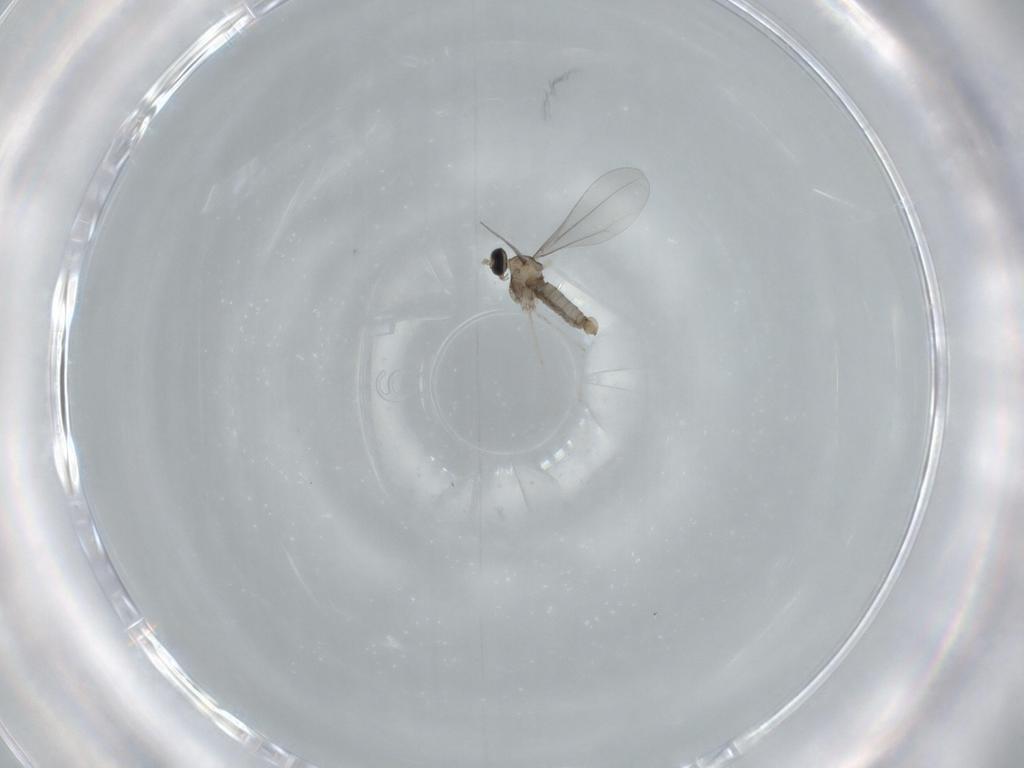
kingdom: Animalia
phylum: Arthropoda
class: Insecta
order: Diptera
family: Cecidomyiidae
